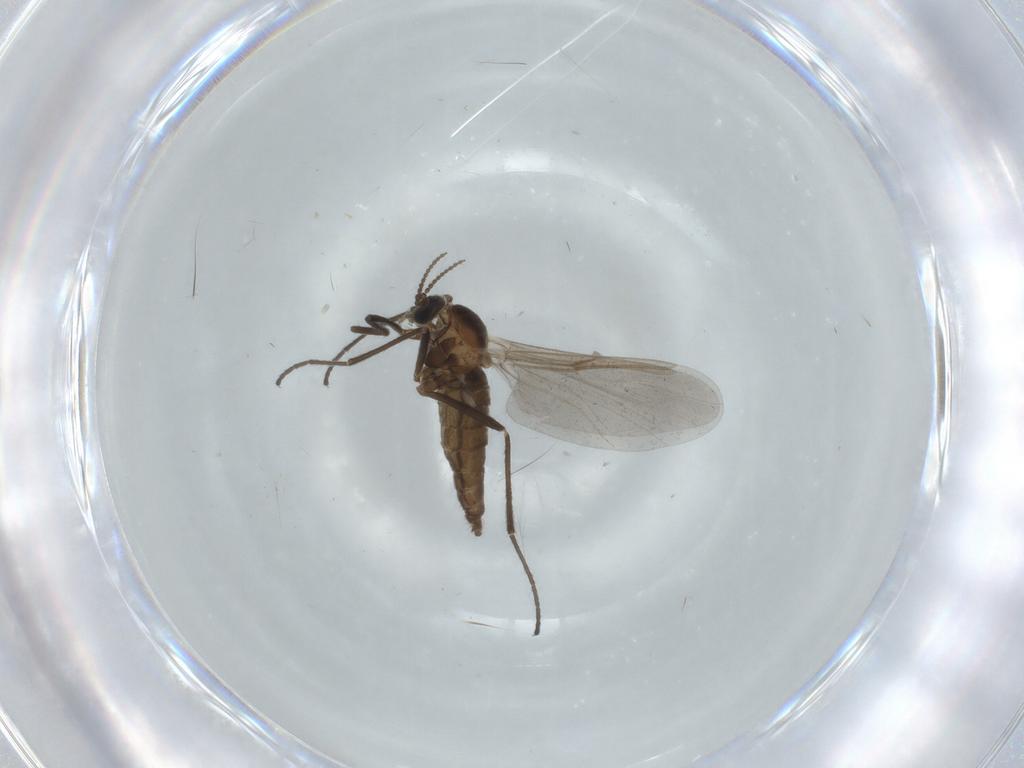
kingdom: Animalia
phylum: Arthropoda
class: Insecta
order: Diptera
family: Cecidomyiidae
